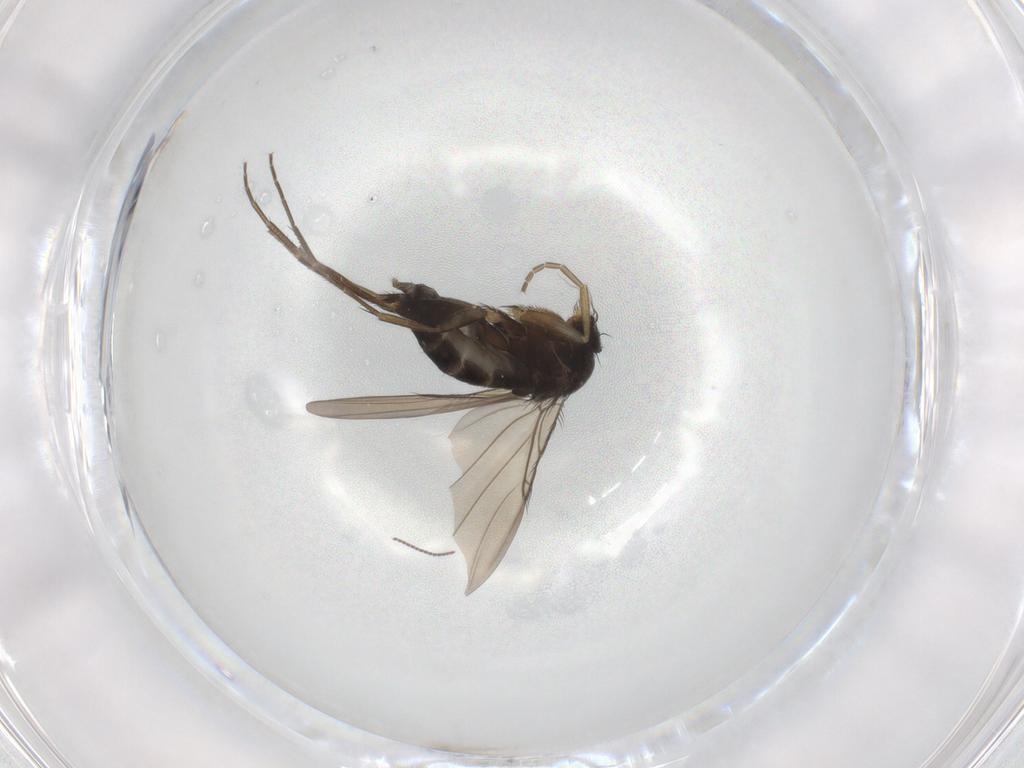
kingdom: Animalia
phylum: Arthropoda
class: Insecta
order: Diptera
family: Phoridae
